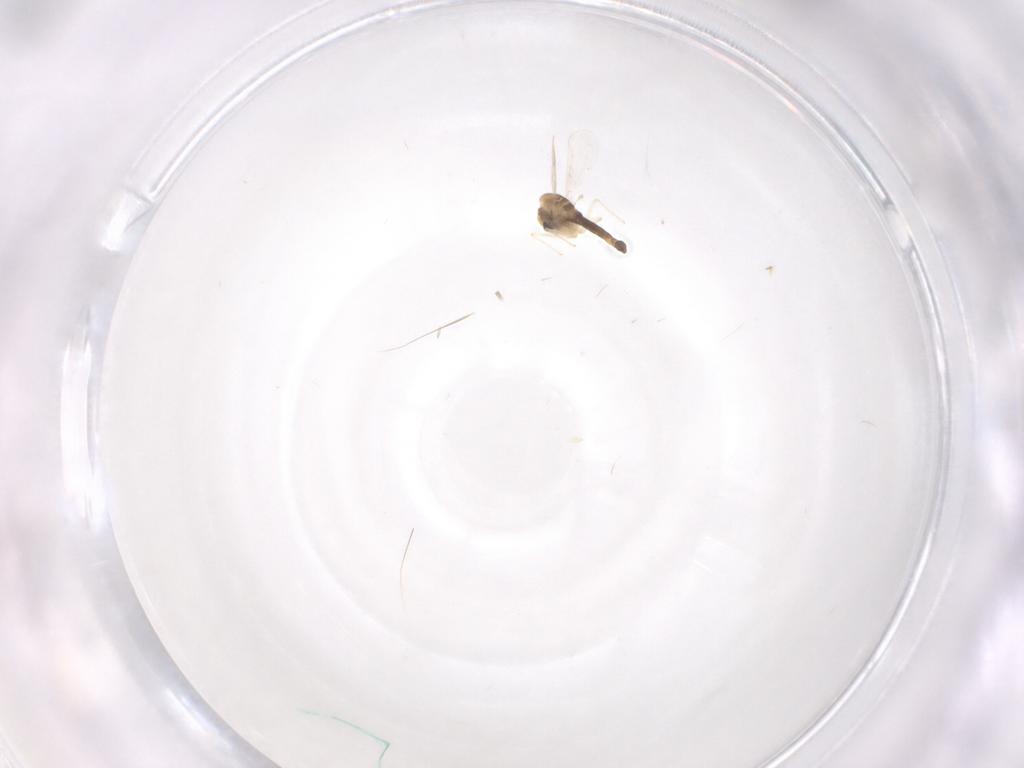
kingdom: Animalia
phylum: Arthropoda
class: Insecta
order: Diptera
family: Chironomidae
